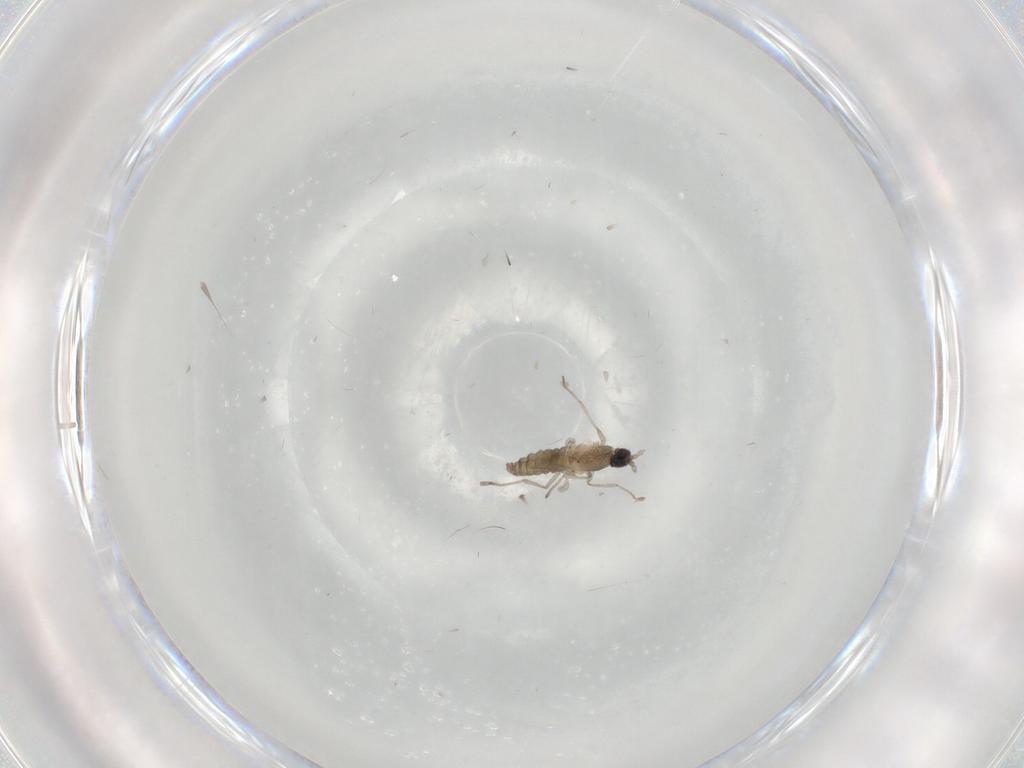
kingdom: Animalia
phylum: Arthropoda
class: Insecta
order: Diptera
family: Cecidomyiidae
